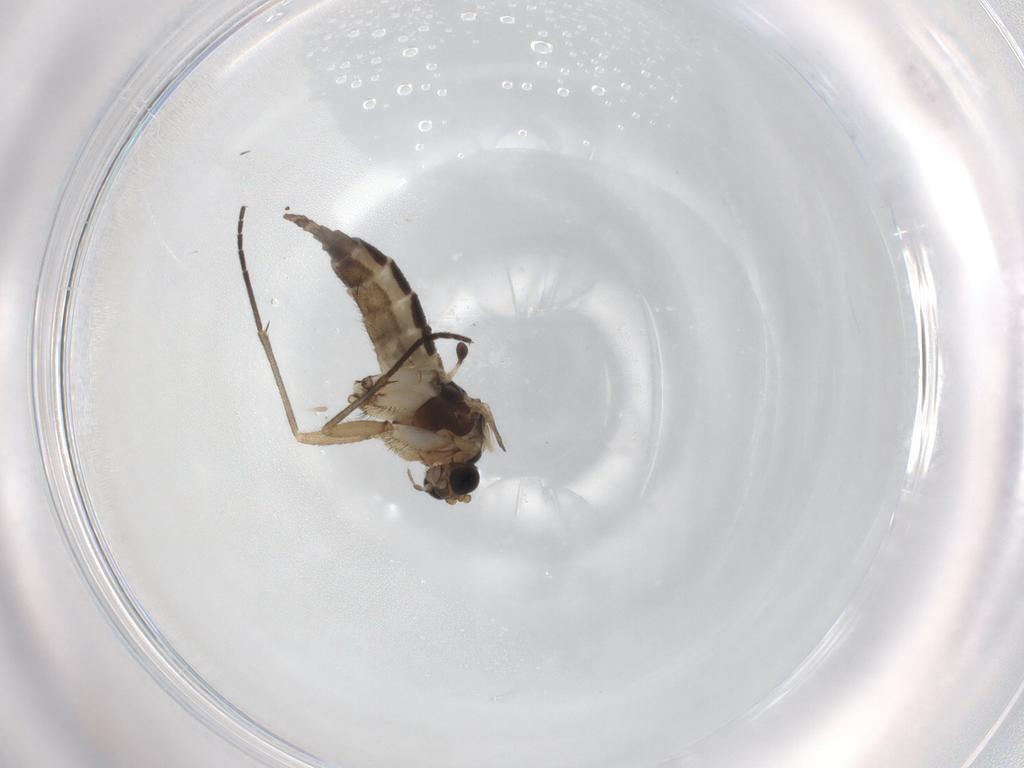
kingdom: Animalia
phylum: Arthropoda
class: Insecta
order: Diptera
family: Sciaridae
